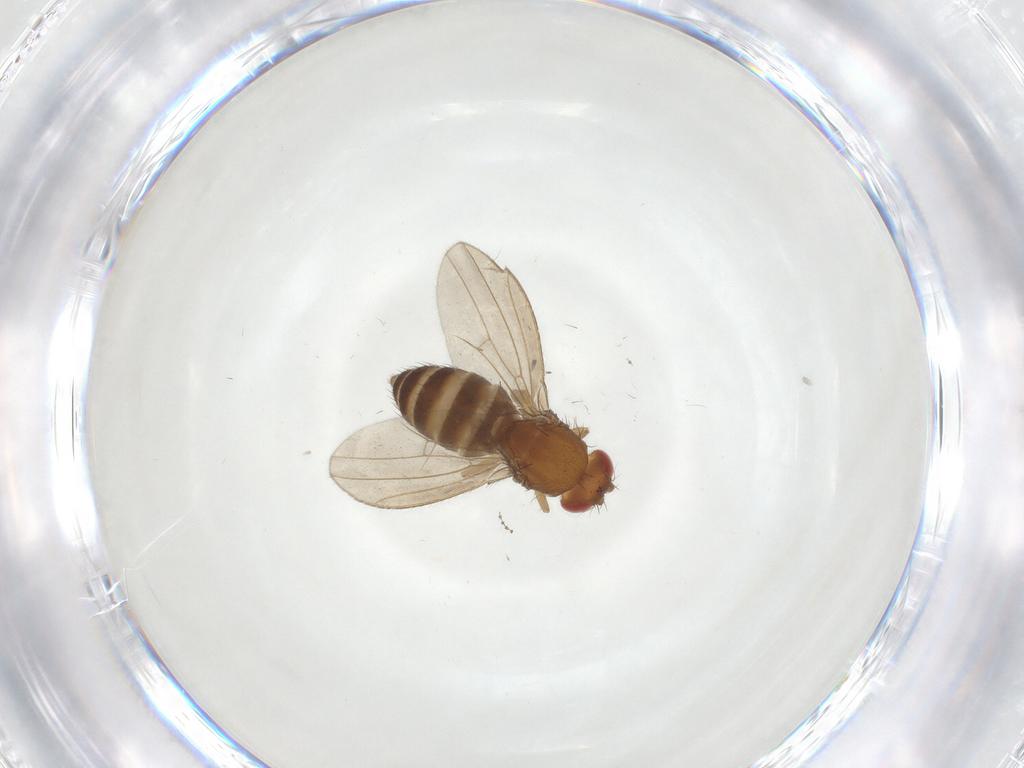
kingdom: Animalia
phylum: Arthropoda
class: Insecta
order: Diptera
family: Drosophilidae
